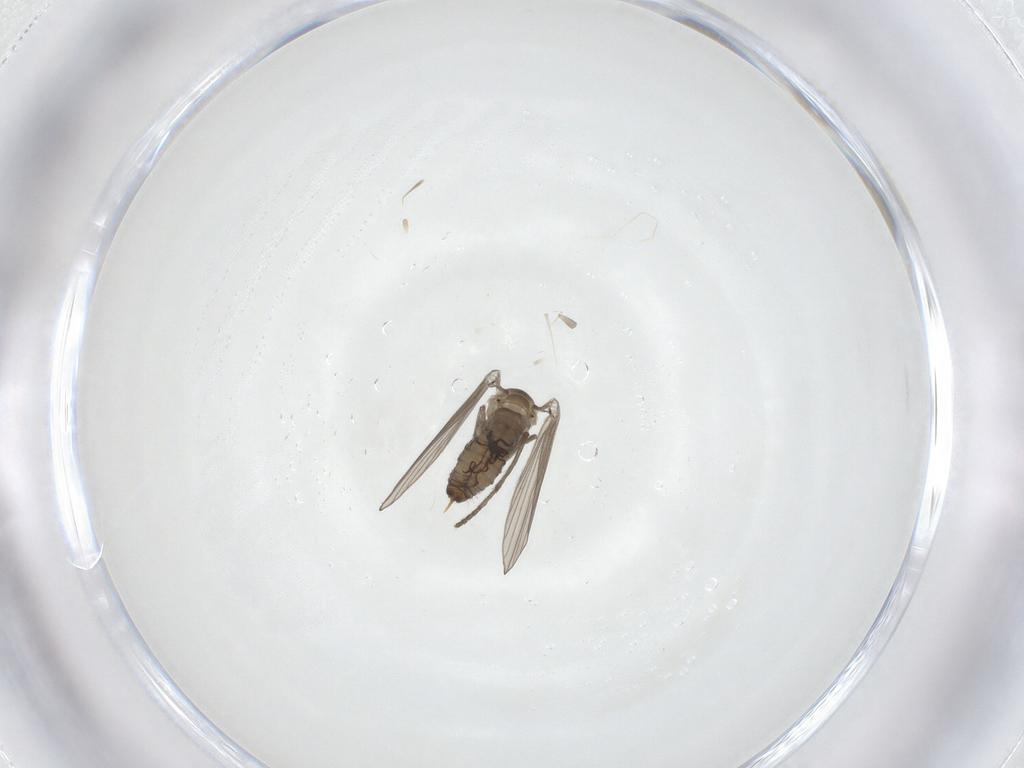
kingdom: Animalia
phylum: Arthropoda
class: Insecta
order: Diptera
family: Psychodidae
